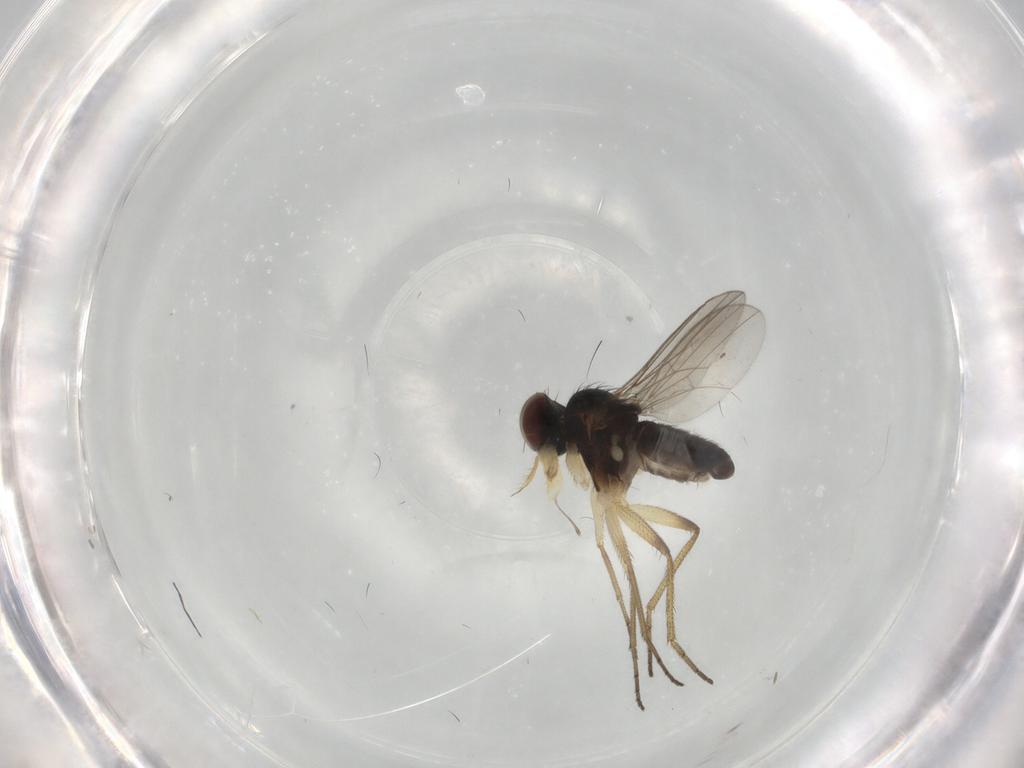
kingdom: Animalia
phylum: Arthropoda
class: Insecta
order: Diptera
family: Dolichopodidae
